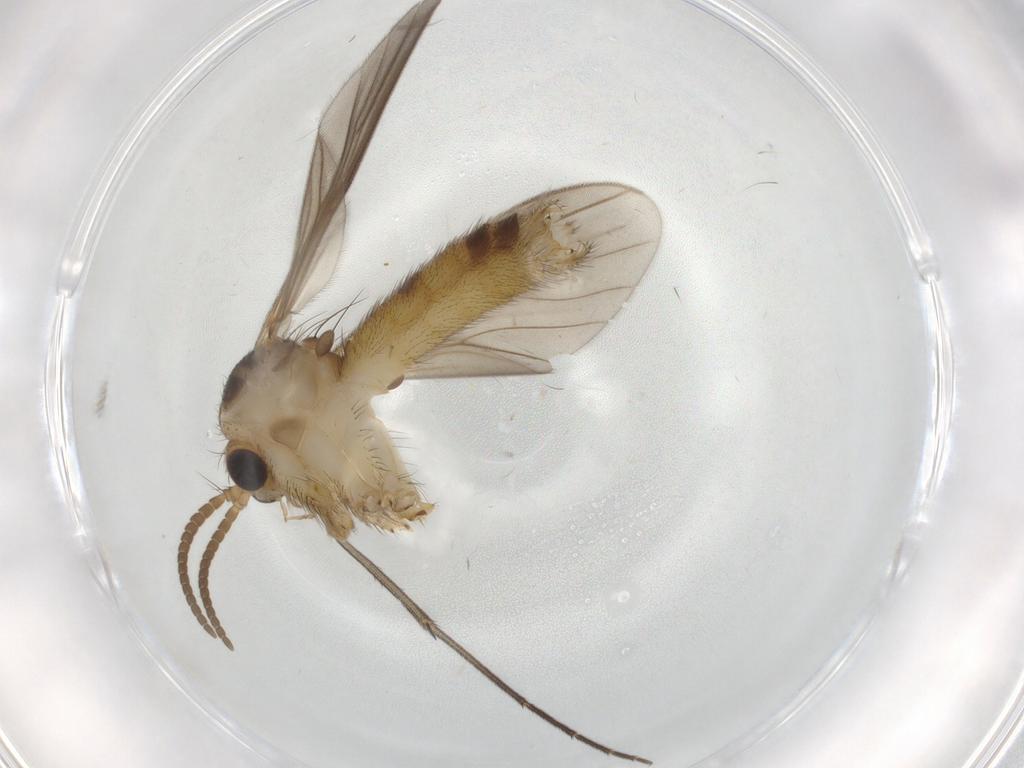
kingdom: Animalia
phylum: Arthropoda
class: Insecta
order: Diptera
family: Phoridae
